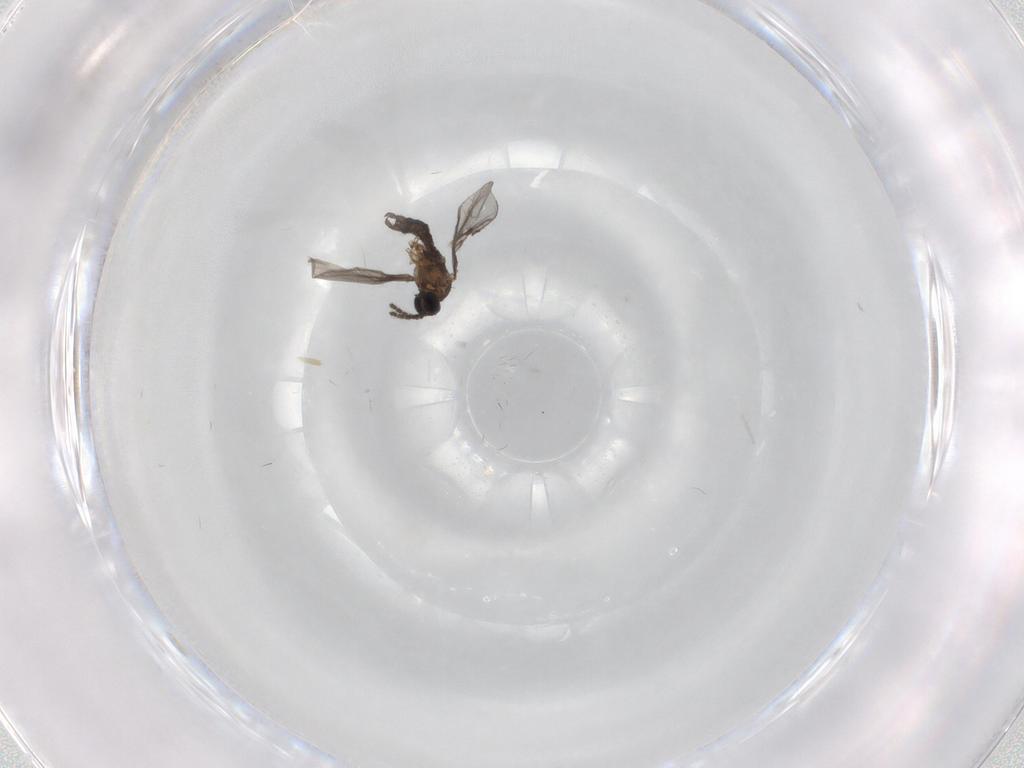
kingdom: Animalia
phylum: Arthropoda
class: Insecta
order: Diptera
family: Sciaridae
